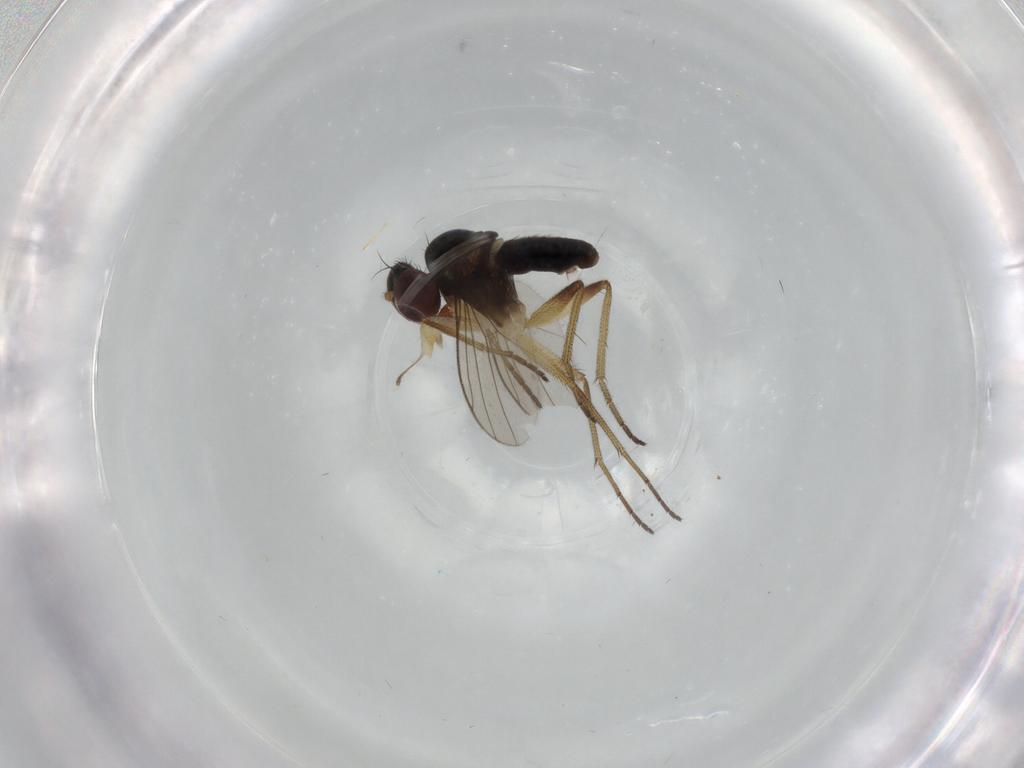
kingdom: Animalia
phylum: Arthropoda
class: Insecta
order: Diptera
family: Dolichopodidae
